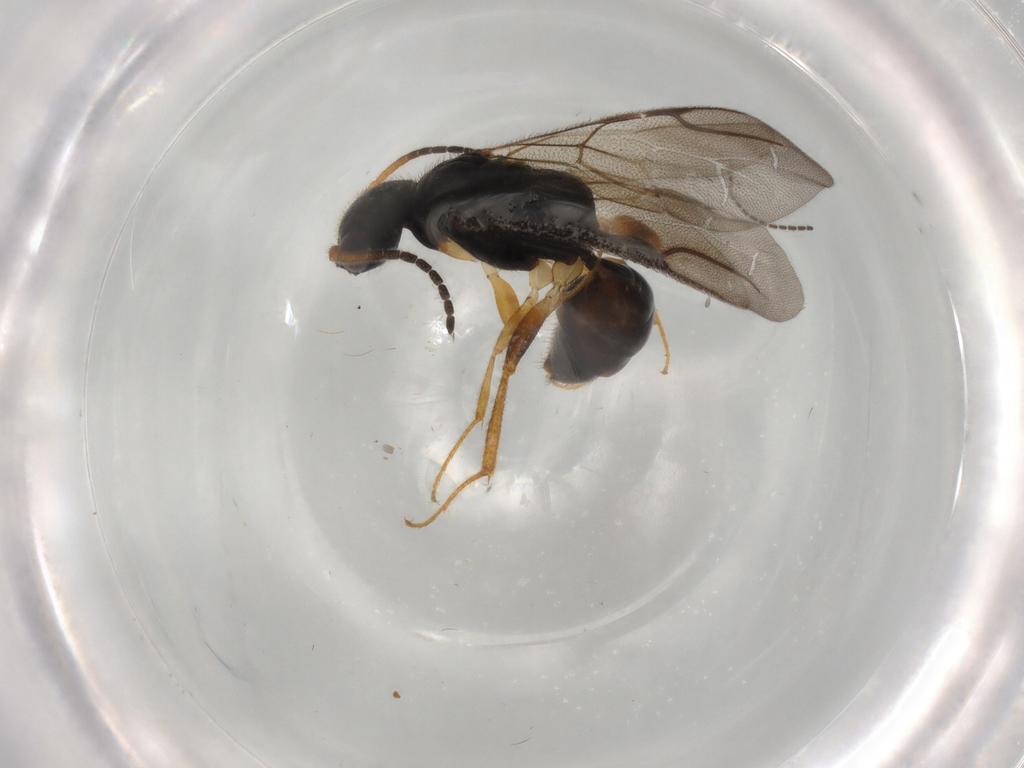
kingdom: Animalia
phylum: Arthropoda
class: Insecta
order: Hymenoptera
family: Bethylidae
